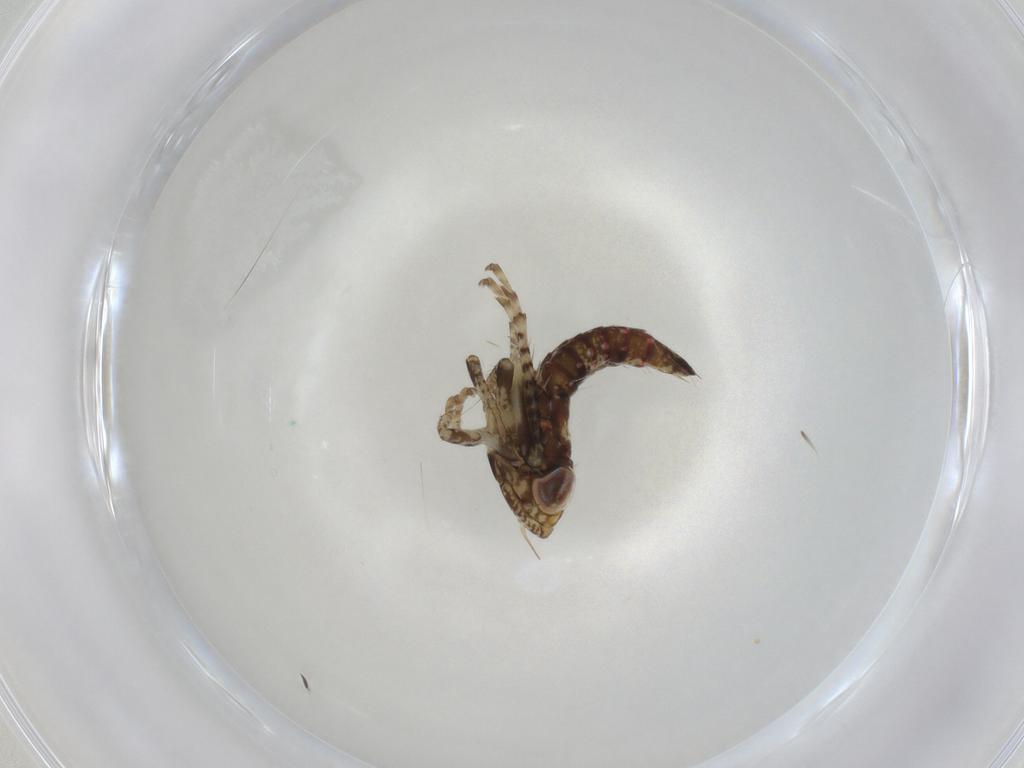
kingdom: Animalia
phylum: Arthropoda
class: Insecta
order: Hemiptera
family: Cicadellidae
